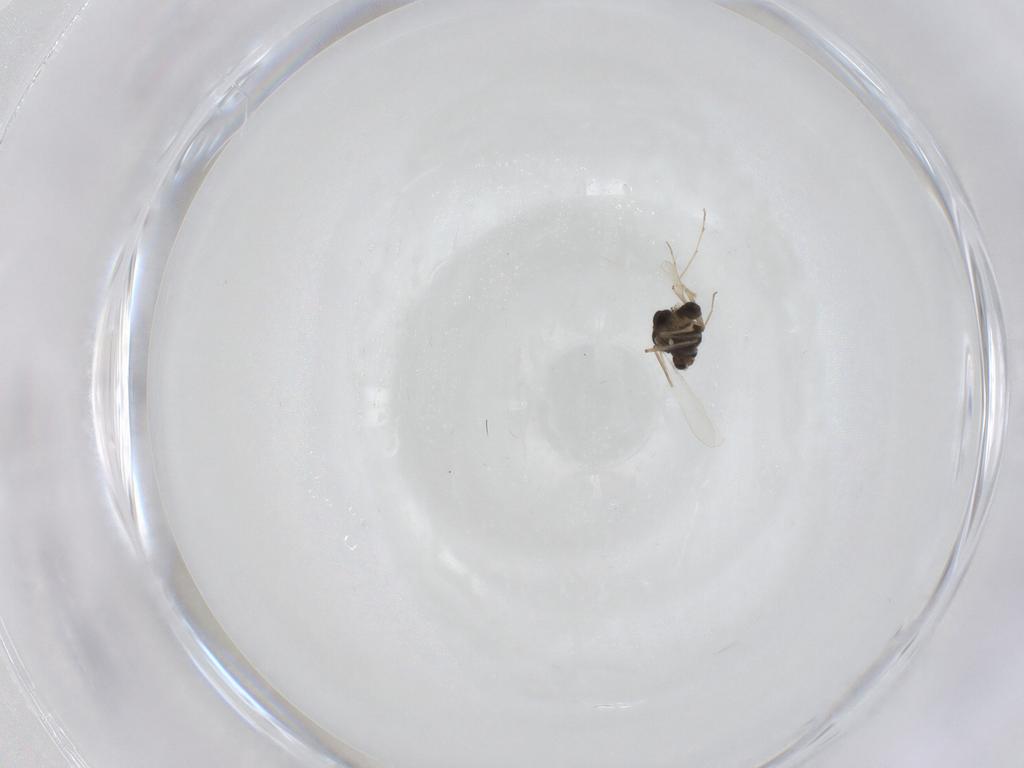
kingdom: Animalia
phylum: Arthropoda
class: Insecta
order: Diptera
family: Chironomidae
